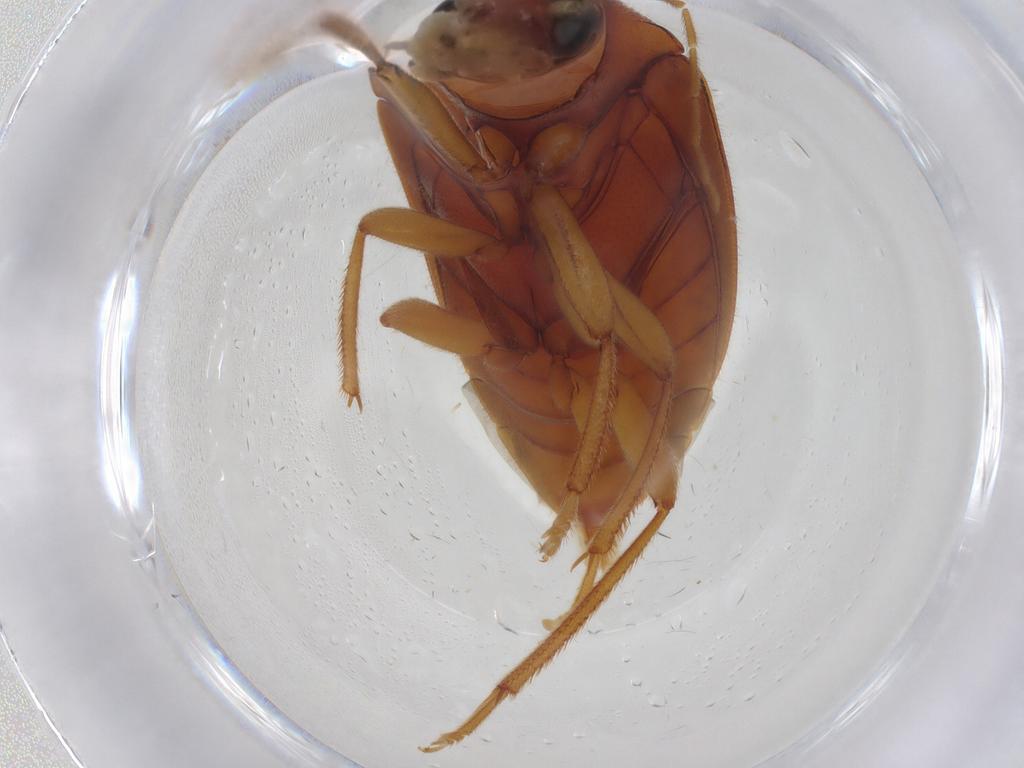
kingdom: Animalia
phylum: Arthropoda
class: Insecta
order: Coleoptera
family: Ptilodactylidae
